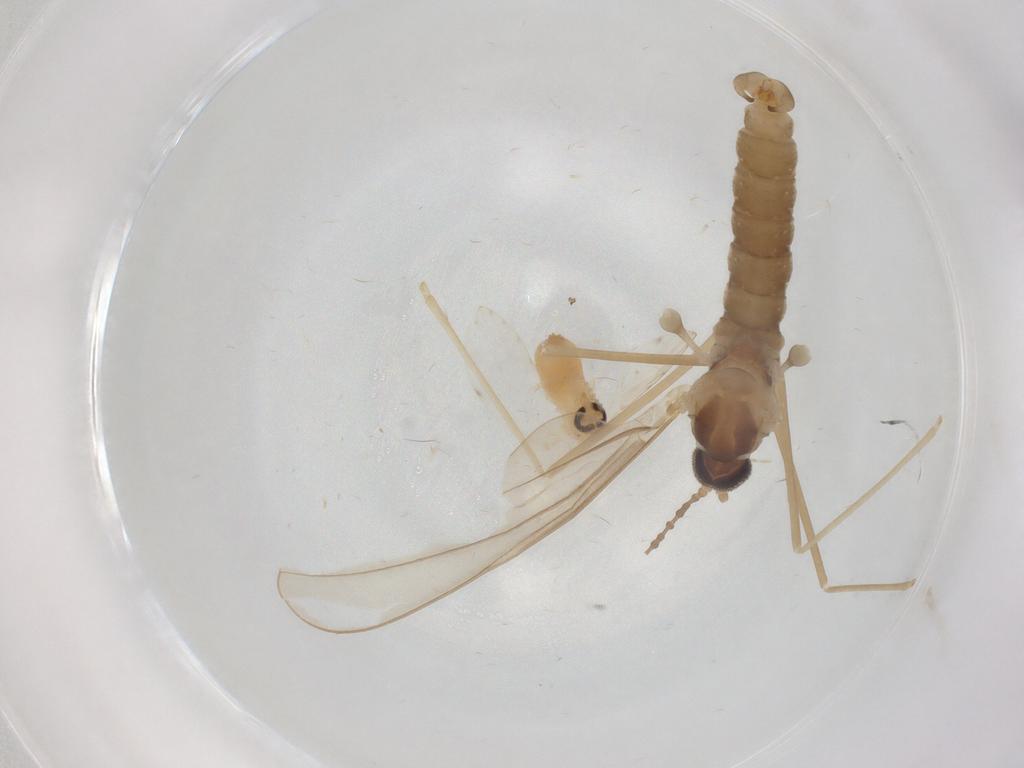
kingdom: Animalia
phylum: Arthropoda
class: Insecta
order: Diptera
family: Cecidomyiidae
